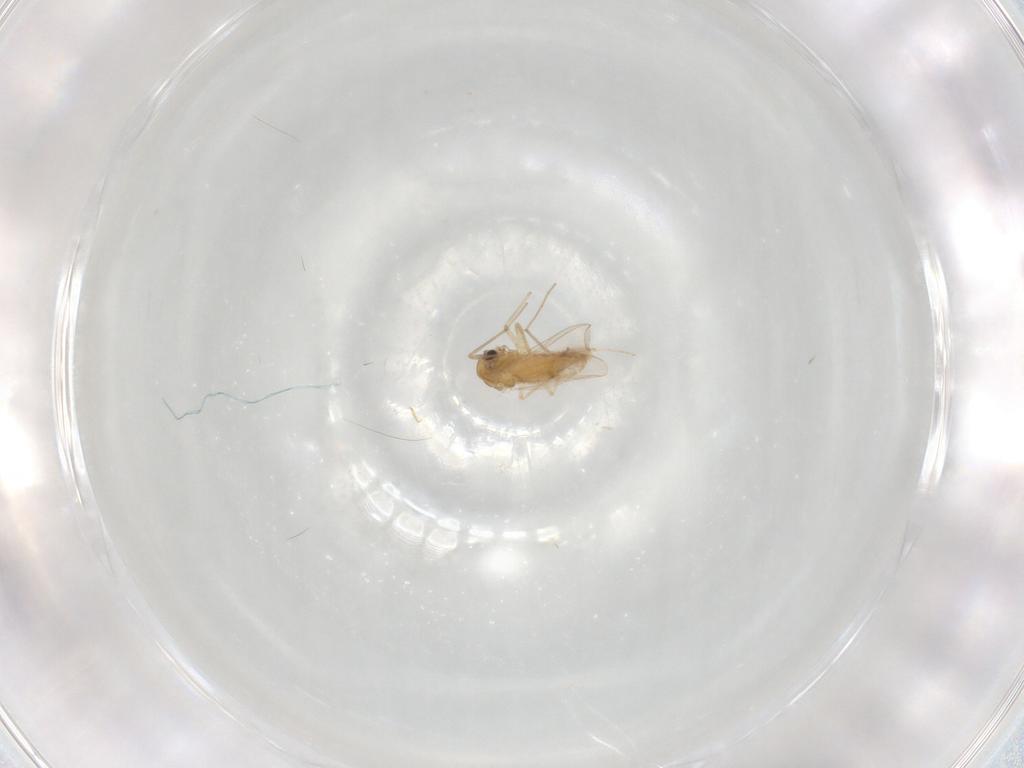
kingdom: Animalia
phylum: Arthropoda
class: Insecta
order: Diptera
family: Chironomidae
